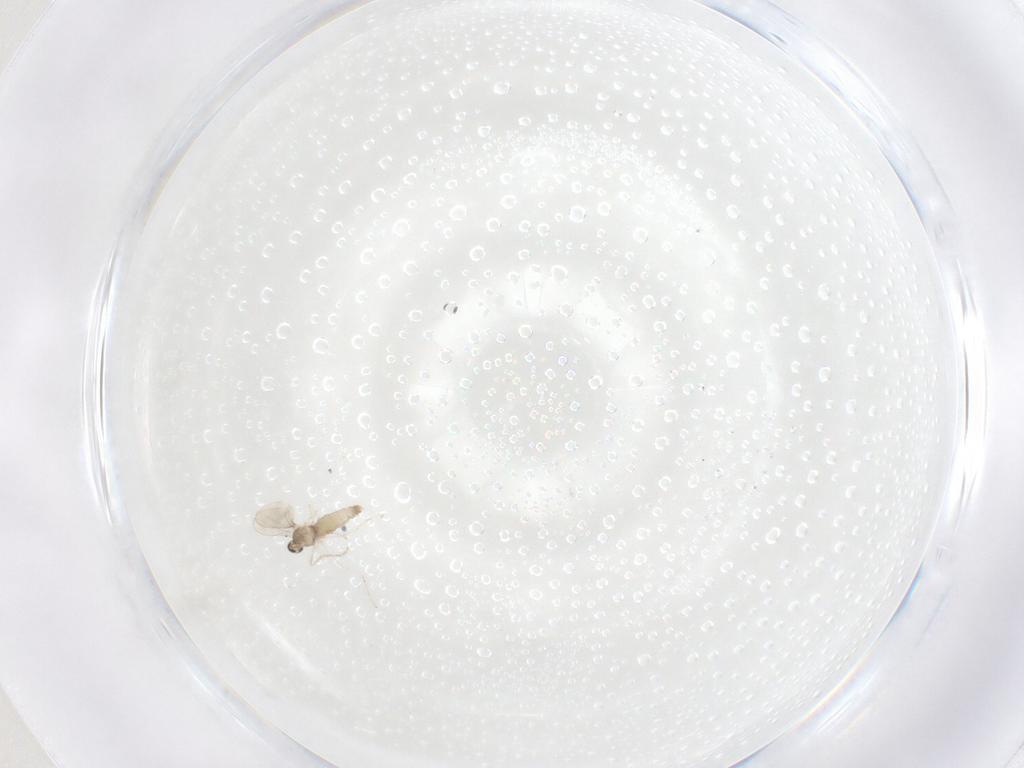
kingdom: Animalia
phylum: Arthropoda
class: Insecta
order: Diptera
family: Cecidomyiidae
